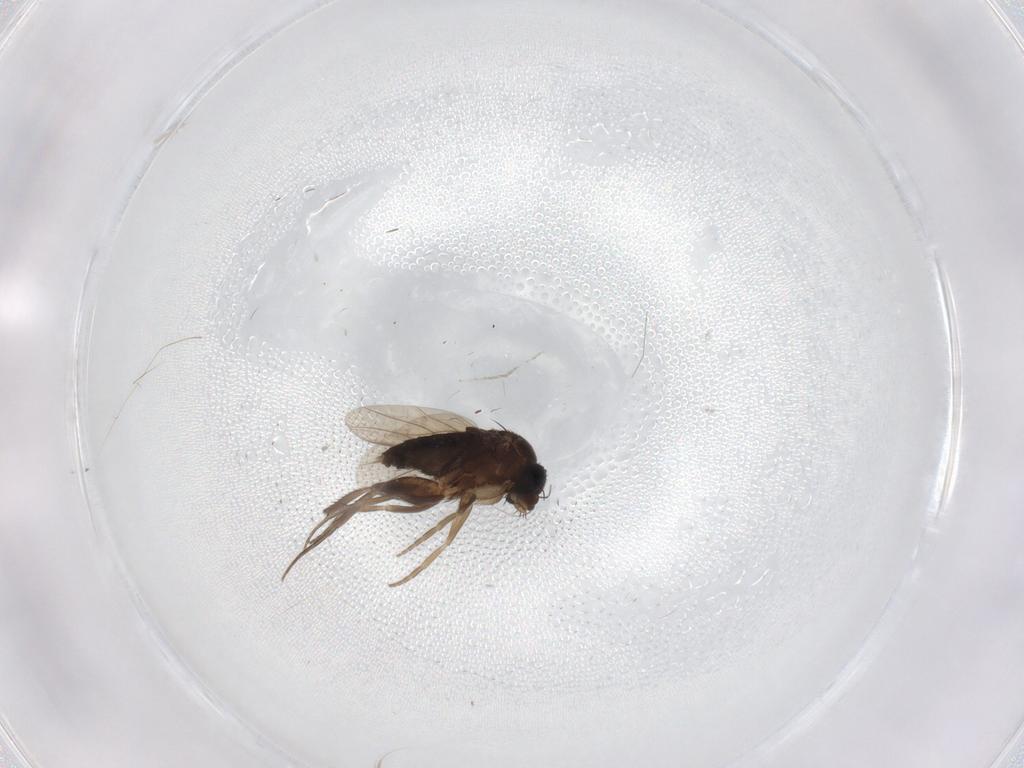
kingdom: Animalia
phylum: Arthropoda
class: Insecta
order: Diptera
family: Phoridae
